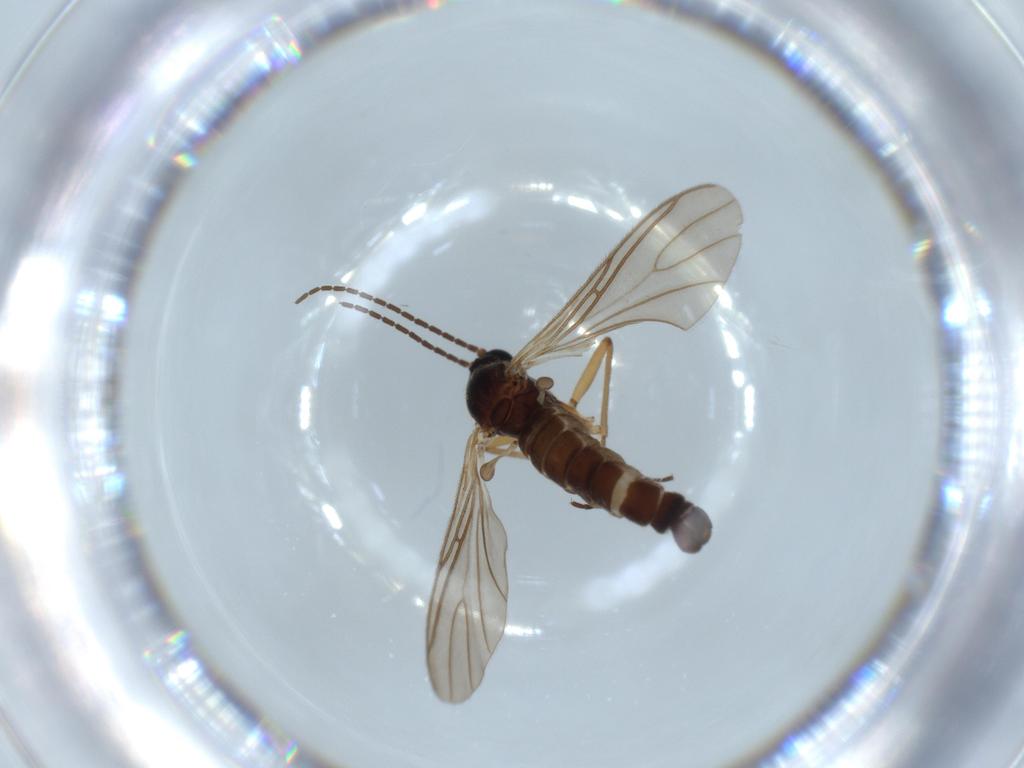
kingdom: Animalia
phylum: Arthropoda
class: Insecta
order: Diptera
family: Sciaridae
